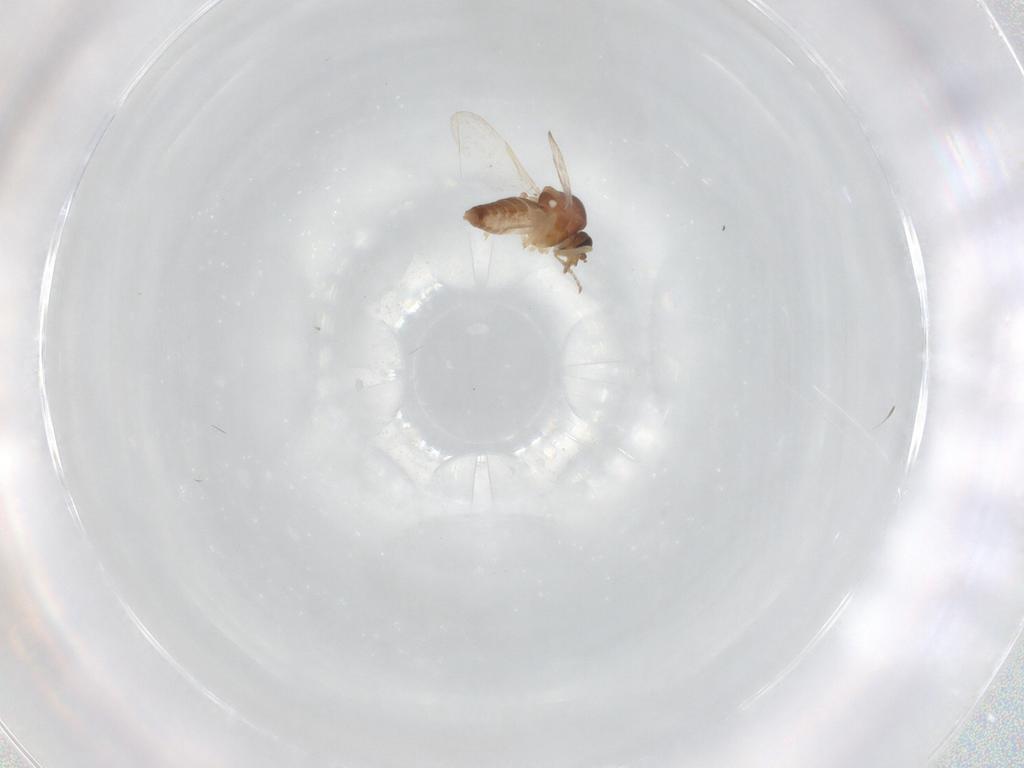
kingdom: Animalia
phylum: Arthropoda
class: Insecta
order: Diptera
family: Ceratopogonidae
